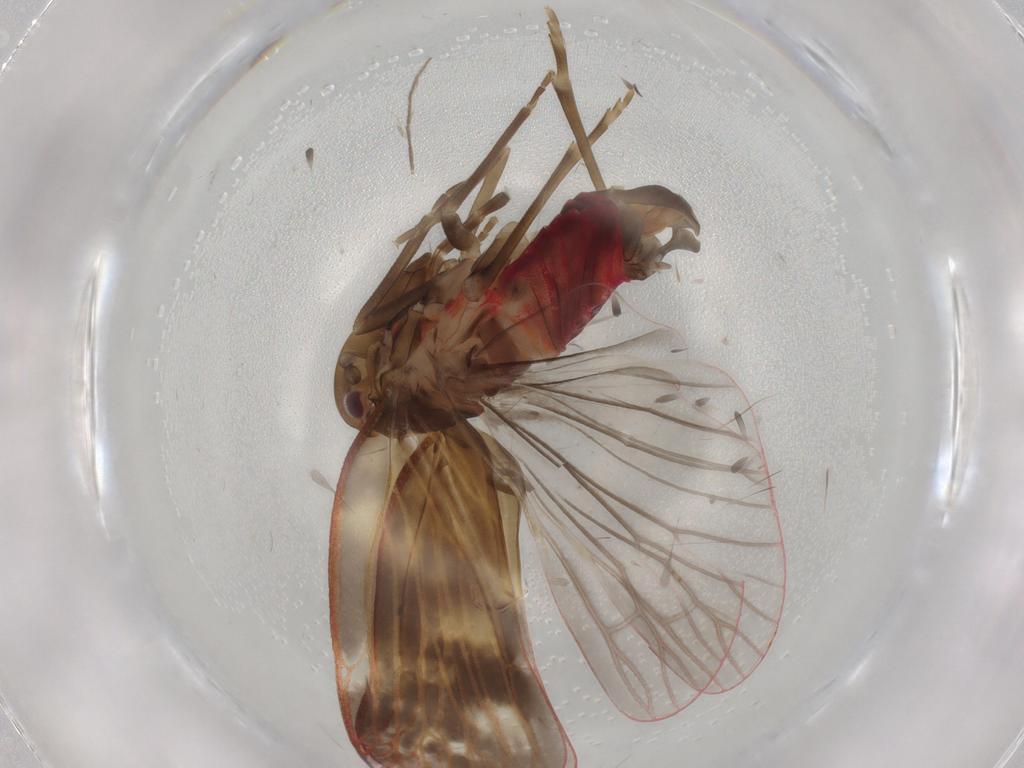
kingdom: Animalia
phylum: Arthropoda
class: Insecta
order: Hemiptera
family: Achilidae
